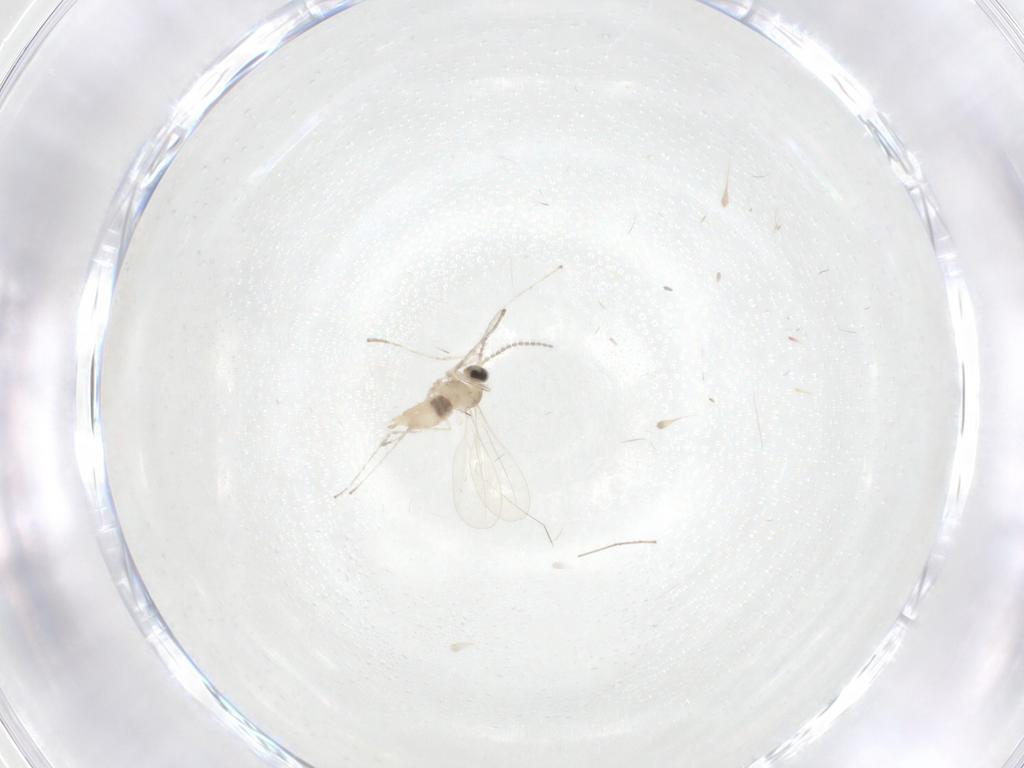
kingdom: Animalia
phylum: Arthropoda
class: Insecta
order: Diptera
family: Cecidomyiidae
